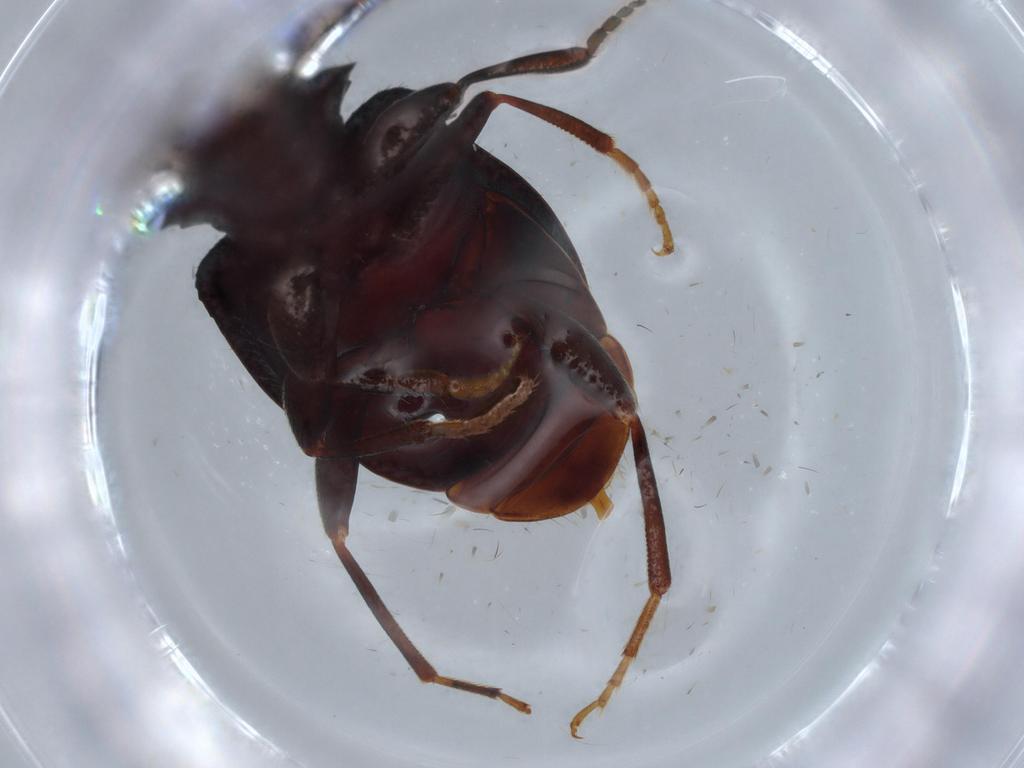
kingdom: Animalia
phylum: Arthropoda
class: Insecta
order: Coleoptera
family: Tenebrionidae
